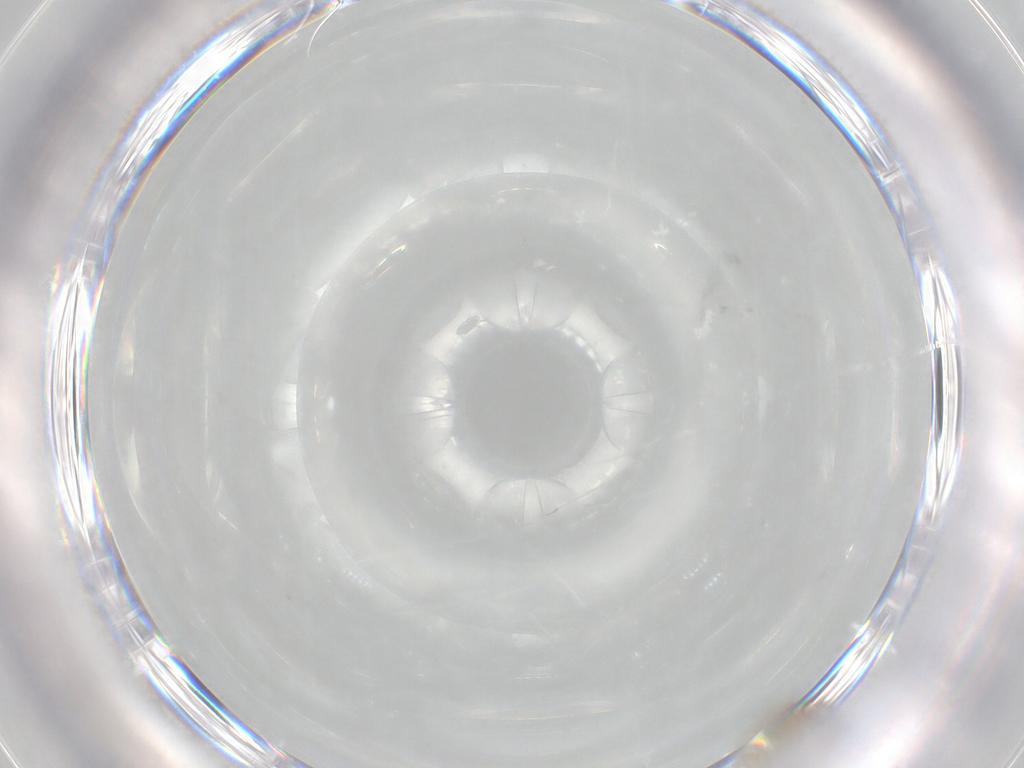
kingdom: Animalia
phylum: Arthropoda
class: Insecta
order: Diptera
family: Cecidomyiidae
